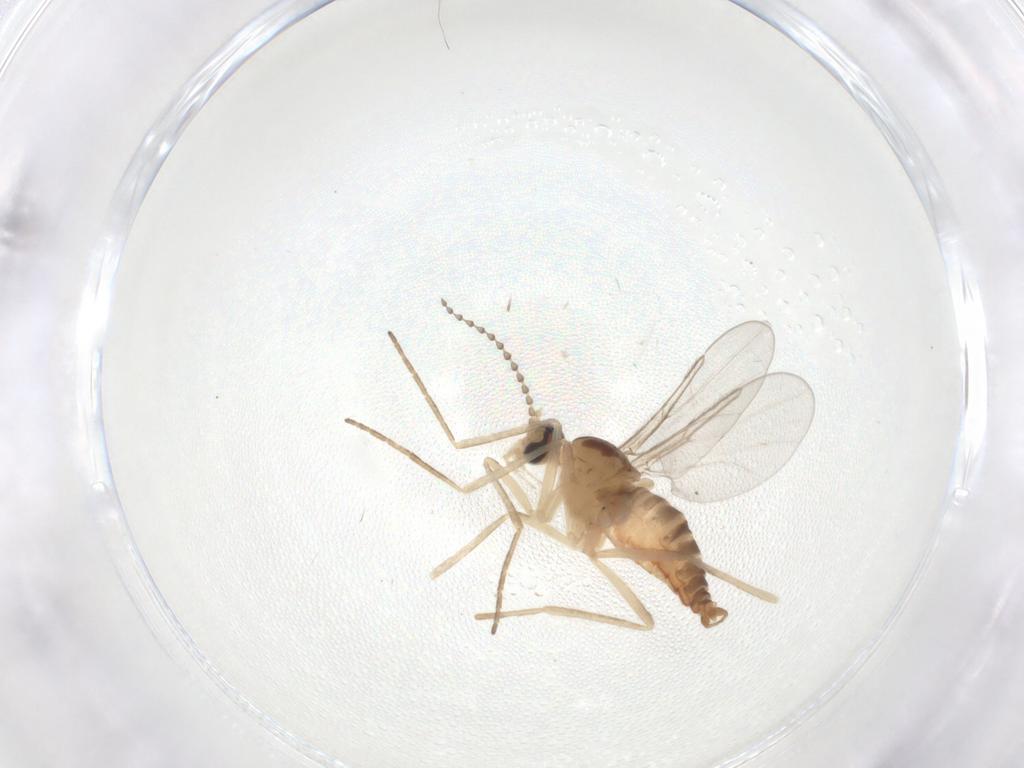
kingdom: Animalia
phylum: Arthropoda
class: Insecta
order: Diptera
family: Cecidomyiidae
